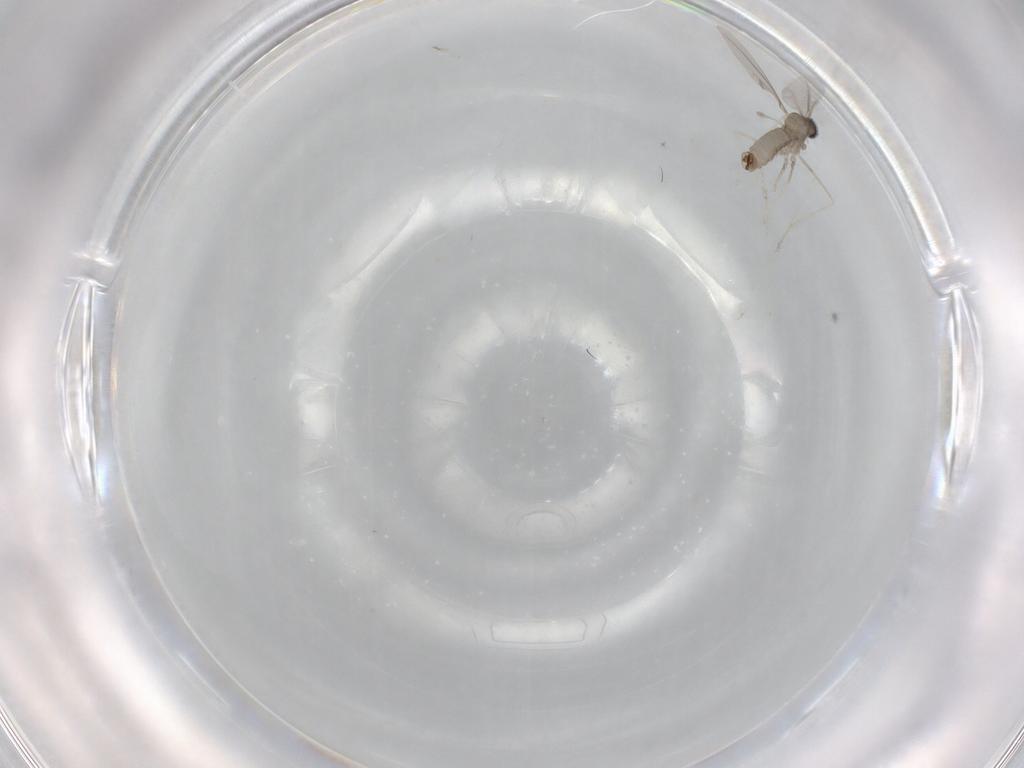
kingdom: Animalia
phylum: Arthropoda
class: Insecta
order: Diptera
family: Cecidomyiidae
